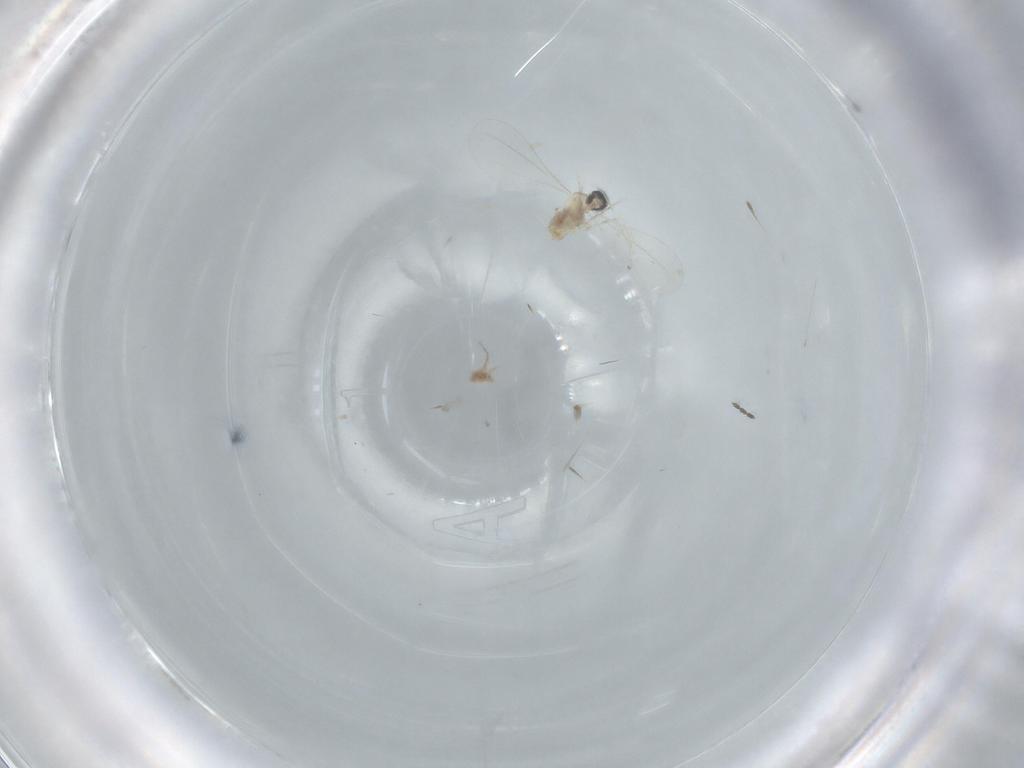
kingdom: Animalia
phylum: Arthropoda
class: Insecta
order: Diptera
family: Cecidomyiidae
